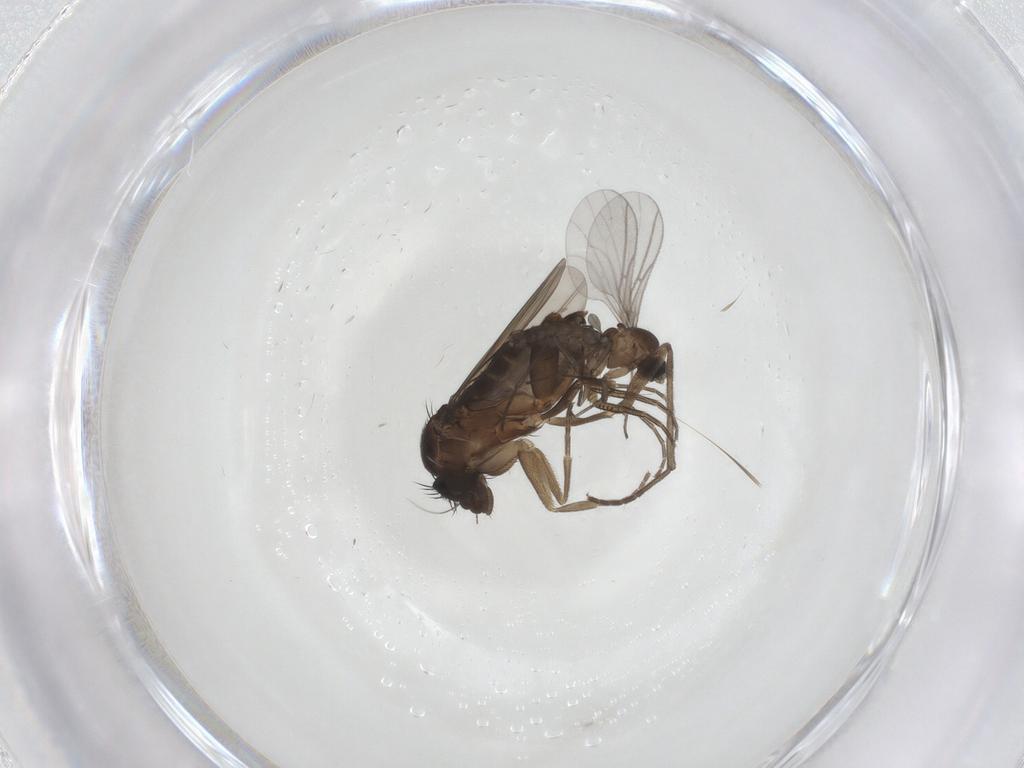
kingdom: Animalia
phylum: Arthropoda
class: Insecta
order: Diptera
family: Phoridae
